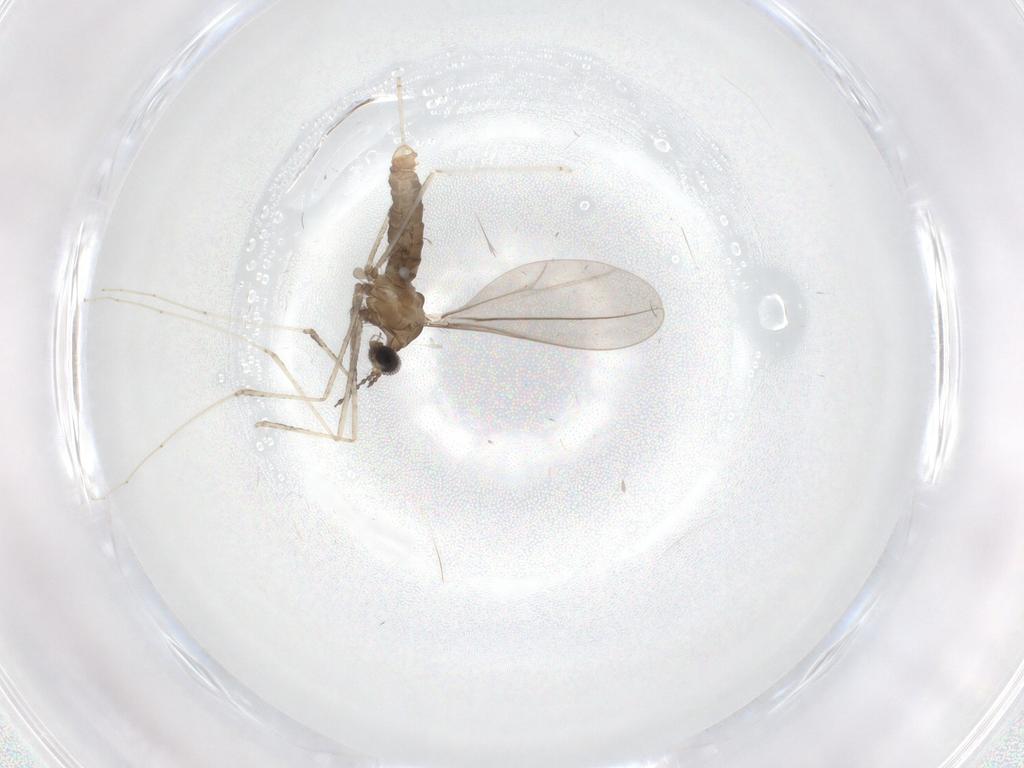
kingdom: Animalia
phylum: Arthropoda
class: Insecta
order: Diptera
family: Cecidomyiidae
